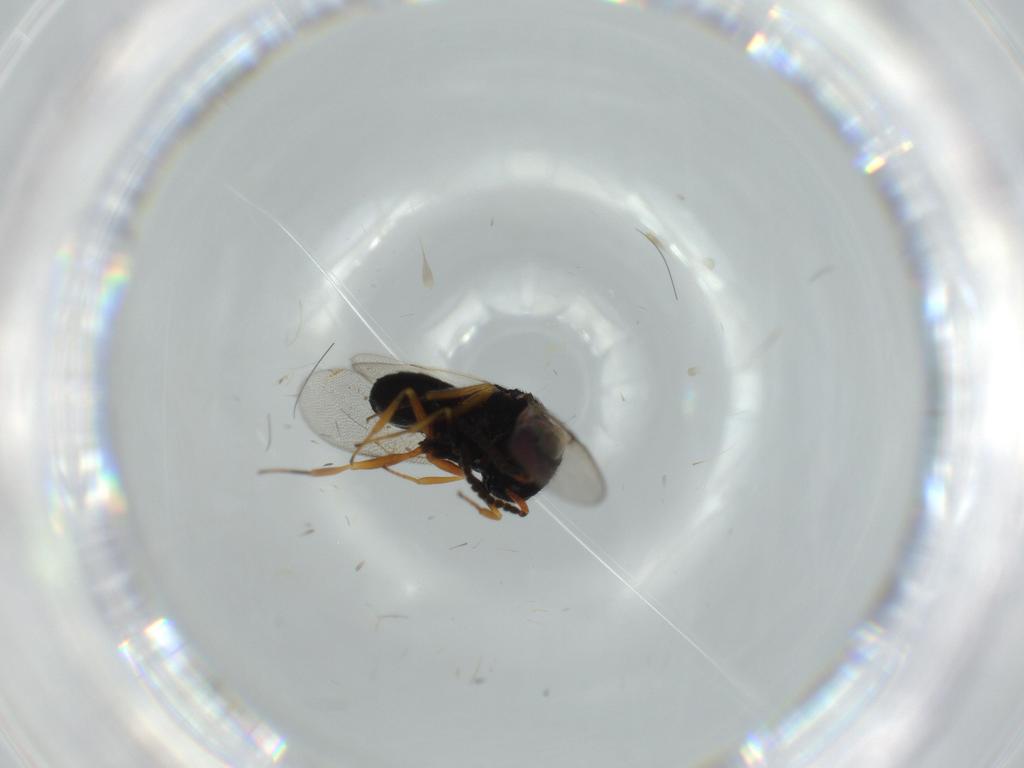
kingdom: Animalia
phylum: Arthropoda
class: Insecta
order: Hymenoptera
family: Scelionidae
